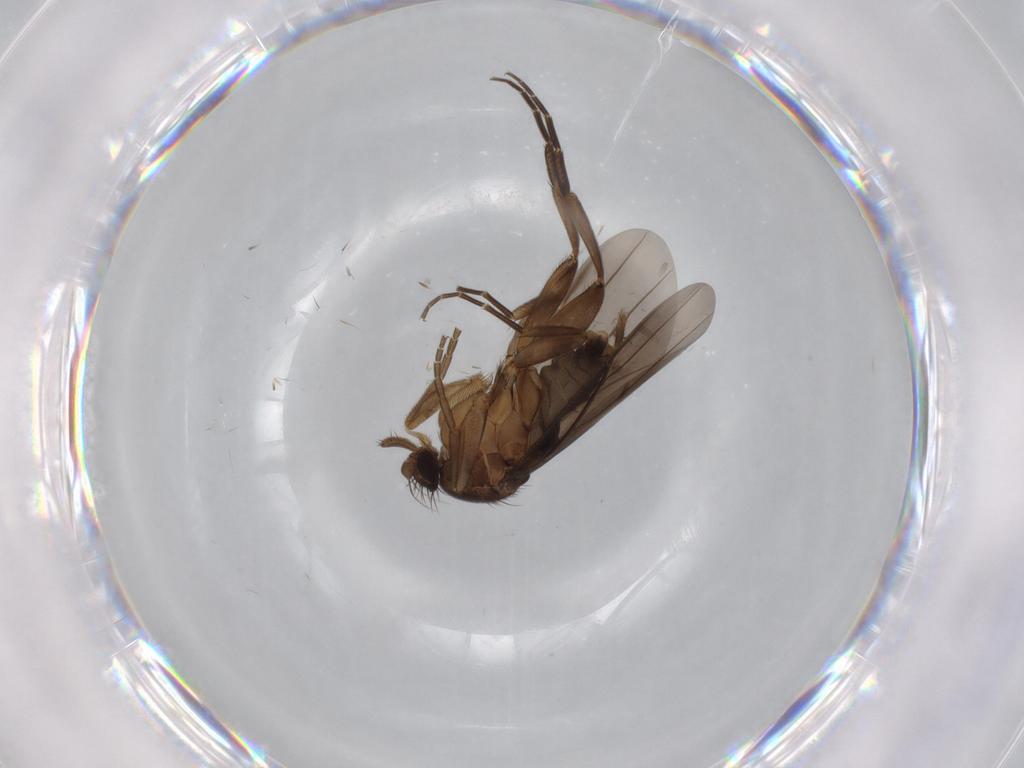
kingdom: Animalia
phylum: Arthropoda
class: Insecta
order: Diptera
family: Phoridae
